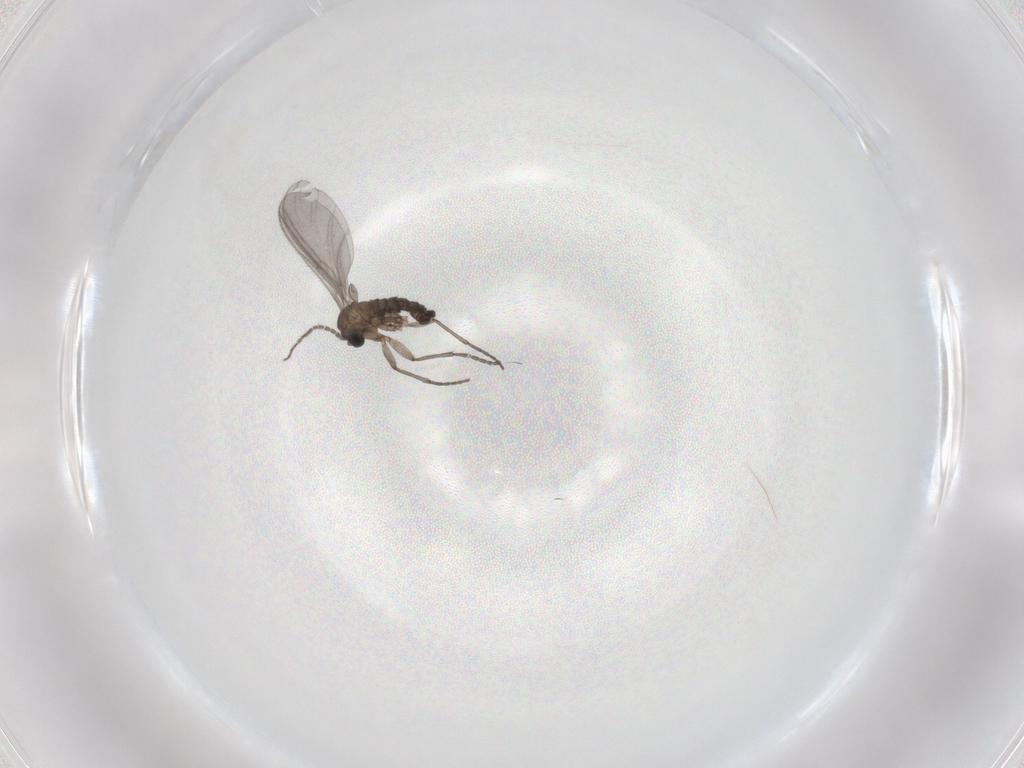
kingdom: Animalia
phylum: Arthropoda
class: Insecta
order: Diptera
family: Sciaridae
